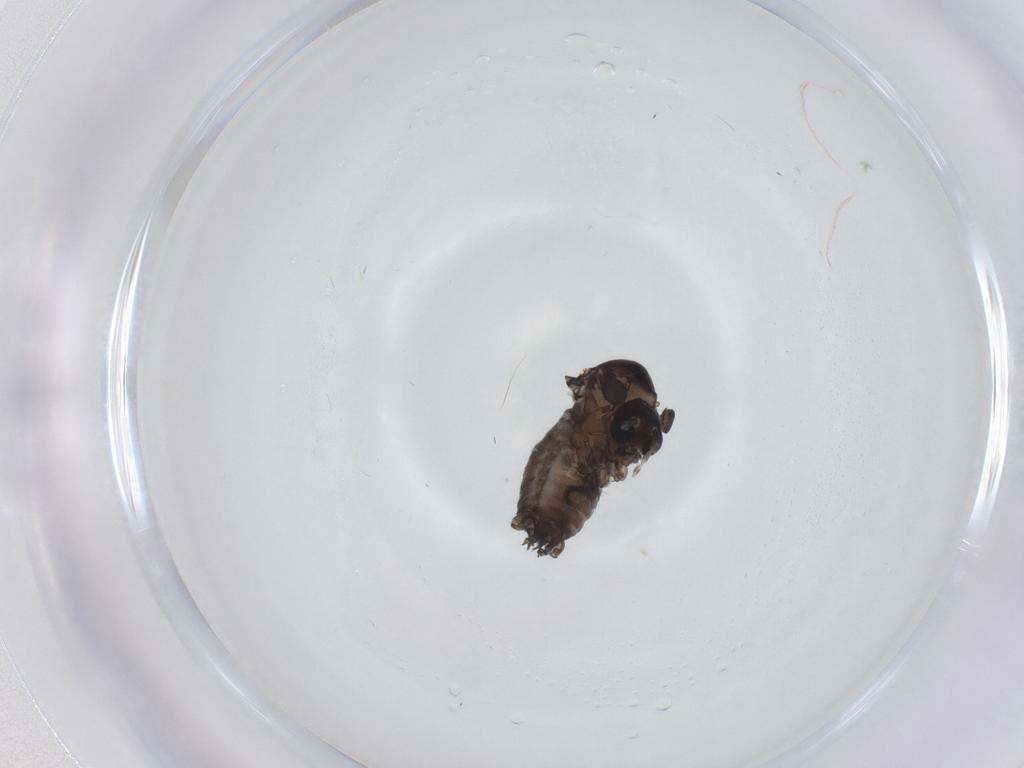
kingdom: Animalia
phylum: Arthropoda
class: Insecta
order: Diptera
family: Psychodidae
